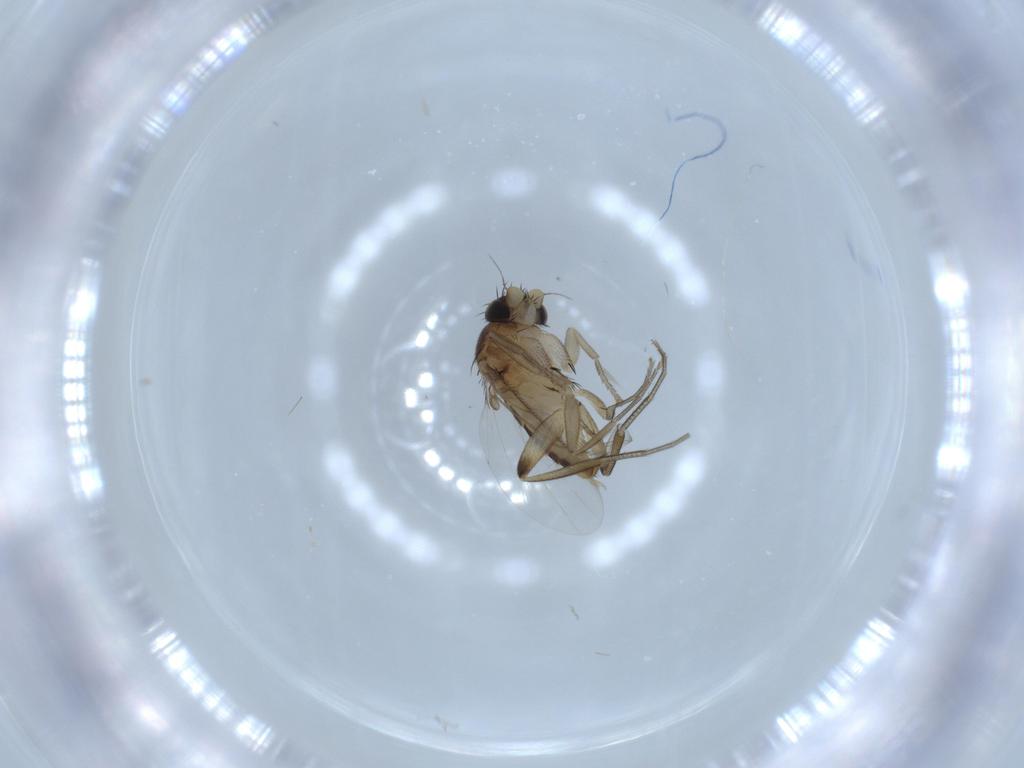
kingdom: Animalia
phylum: Arthropoda
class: Insecta
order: Diptera
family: Phoridae
